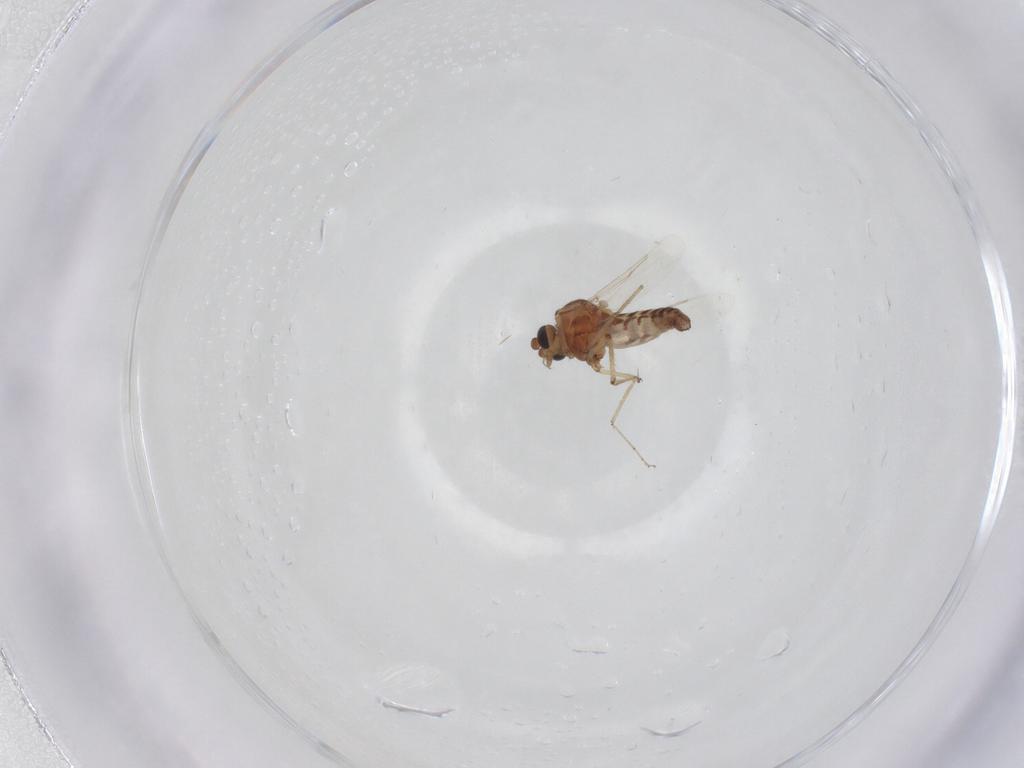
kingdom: Animalia
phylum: Arthropoda
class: Insecta
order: Diptera
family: Ceratopogonidae
